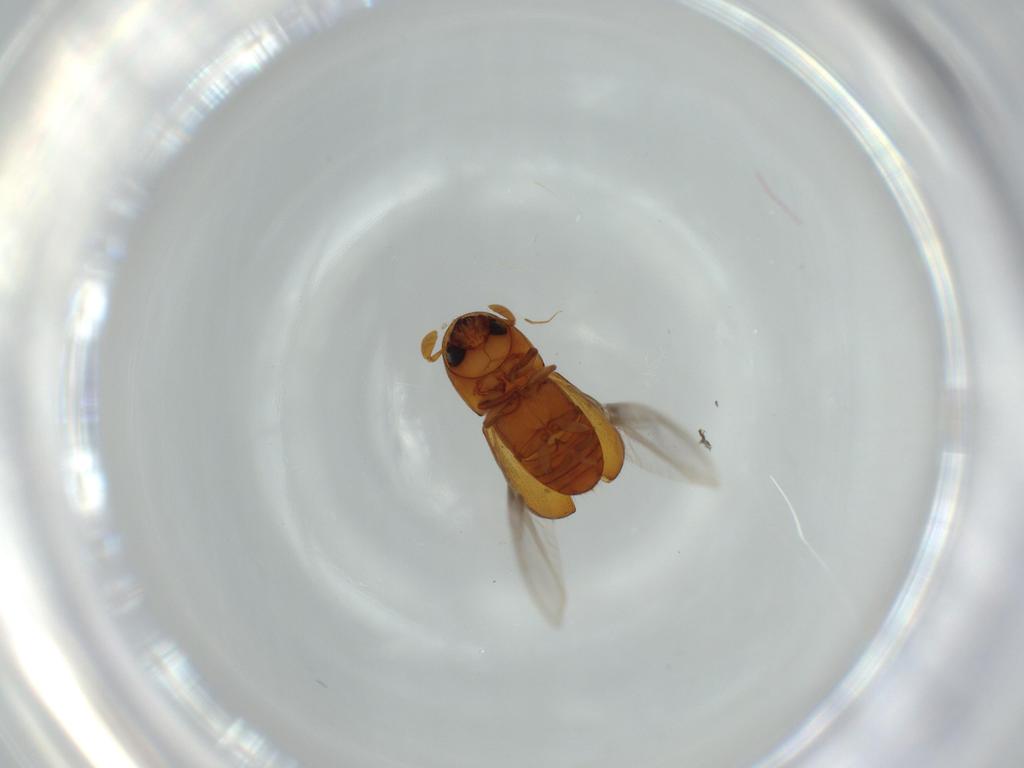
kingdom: Animalia
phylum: Arthropoda
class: Insecta
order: Coleoptera
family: Curculionidae
